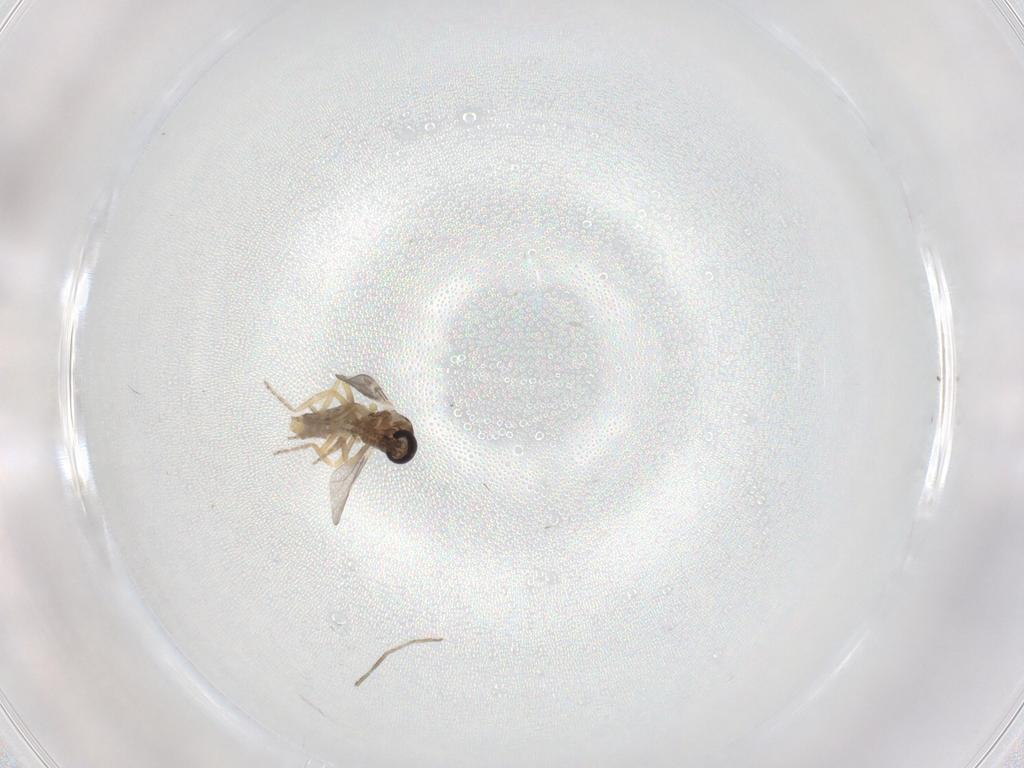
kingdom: Animalia
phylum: Arthropoda
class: Insecta
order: Diptera
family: Ceratopogonidae
